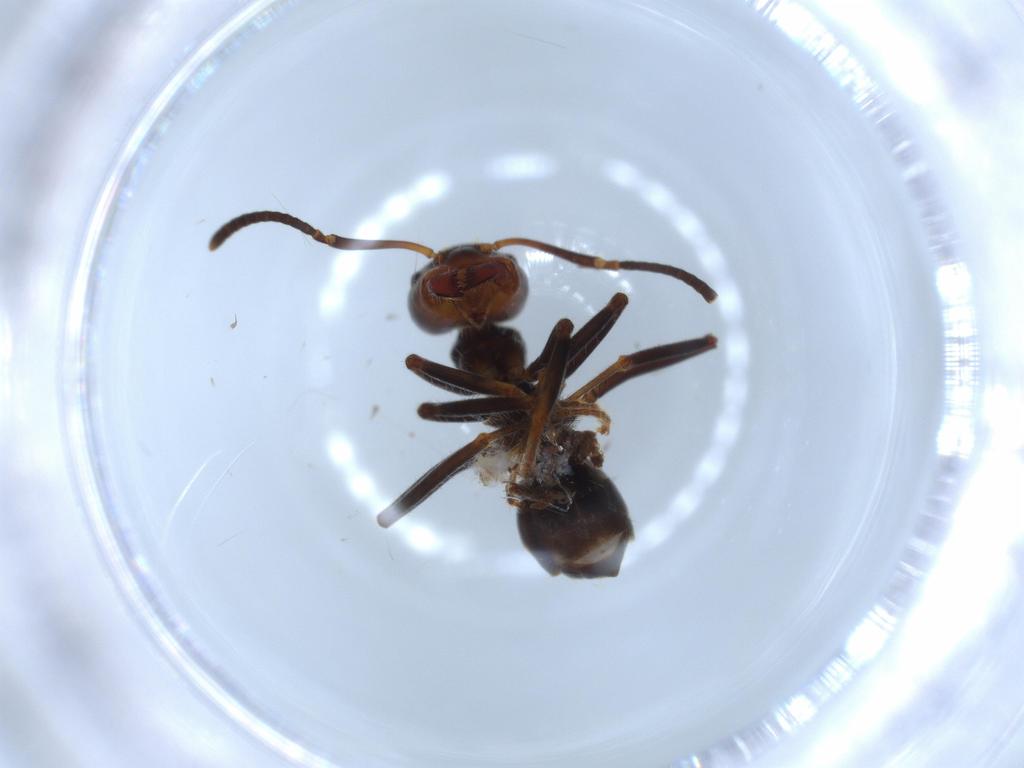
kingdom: Animalia
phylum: Arthropoda
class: Insecta
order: Hymenoptera
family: Formicidae
